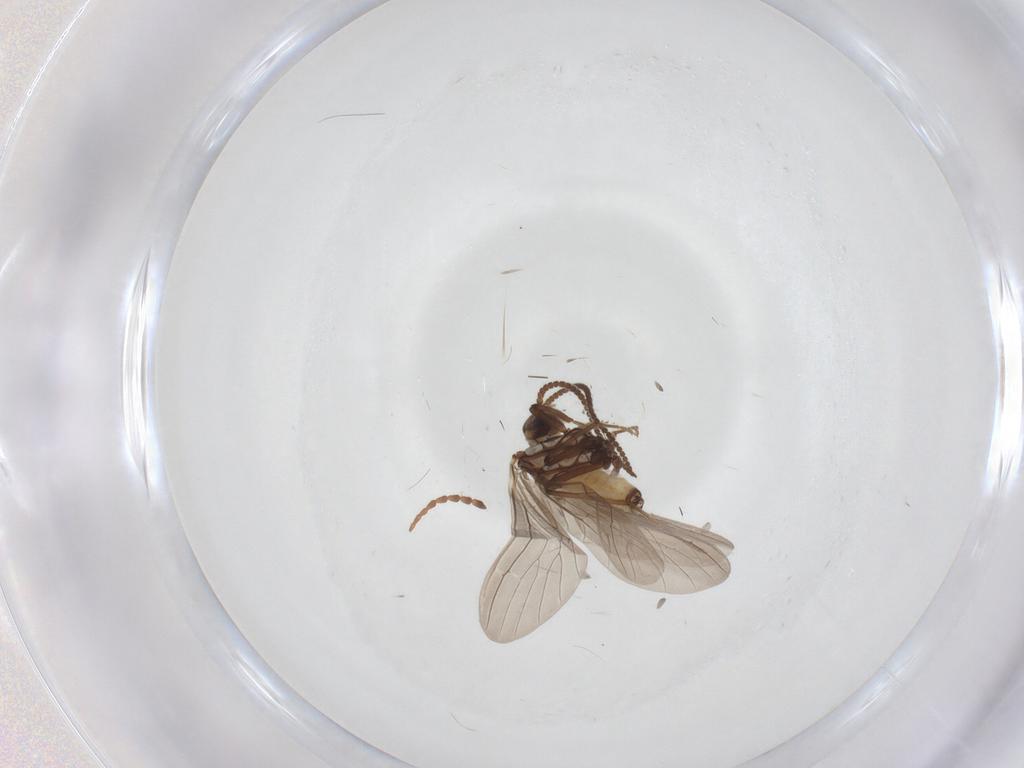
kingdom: Animalia
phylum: Arthropoda
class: Insecta
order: Neuroptera
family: Coniopterygidae
